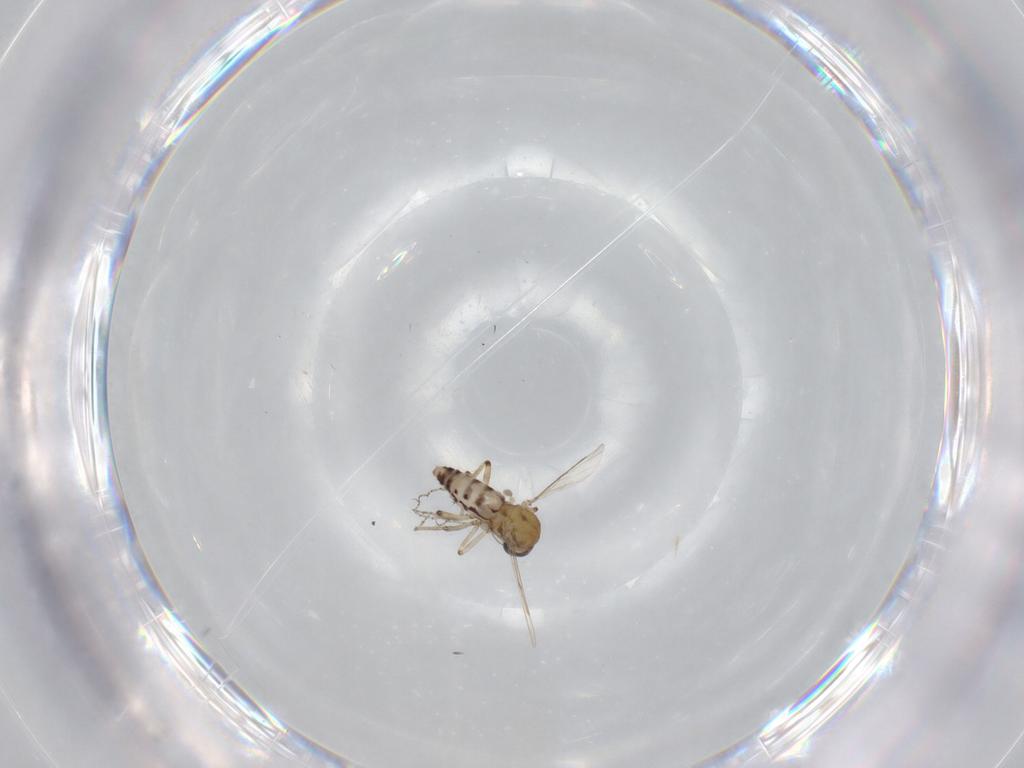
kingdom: Animalia
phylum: Arthropoda
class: Insecta
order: Diptera
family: Ceratopogonidae
